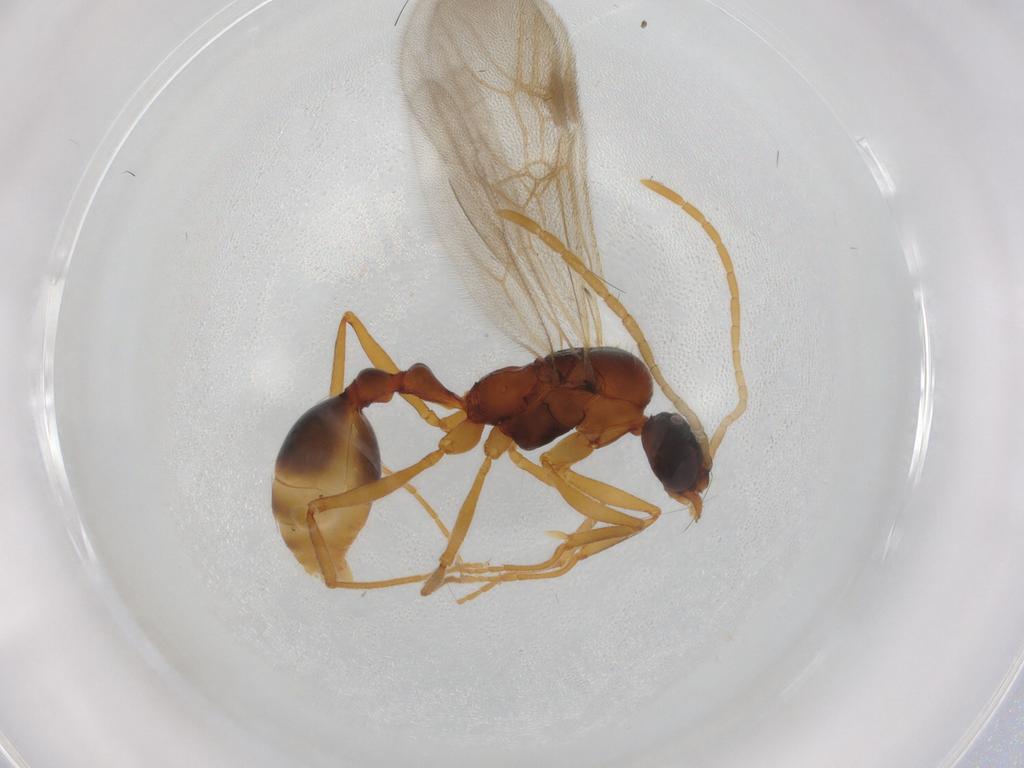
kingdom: Animalia
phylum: Arthropoda
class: Insecta
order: Hymenoptera
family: Formicidae
